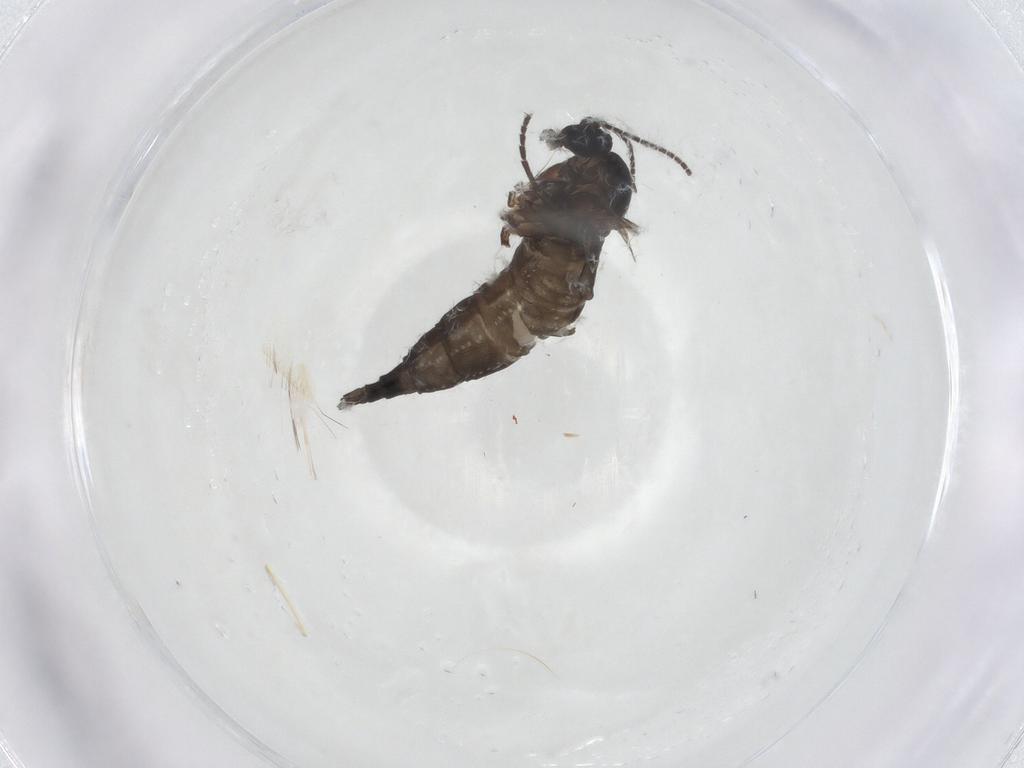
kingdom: Animalia
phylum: Arthropoda
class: Insecta
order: Diptera
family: Sciaridae
